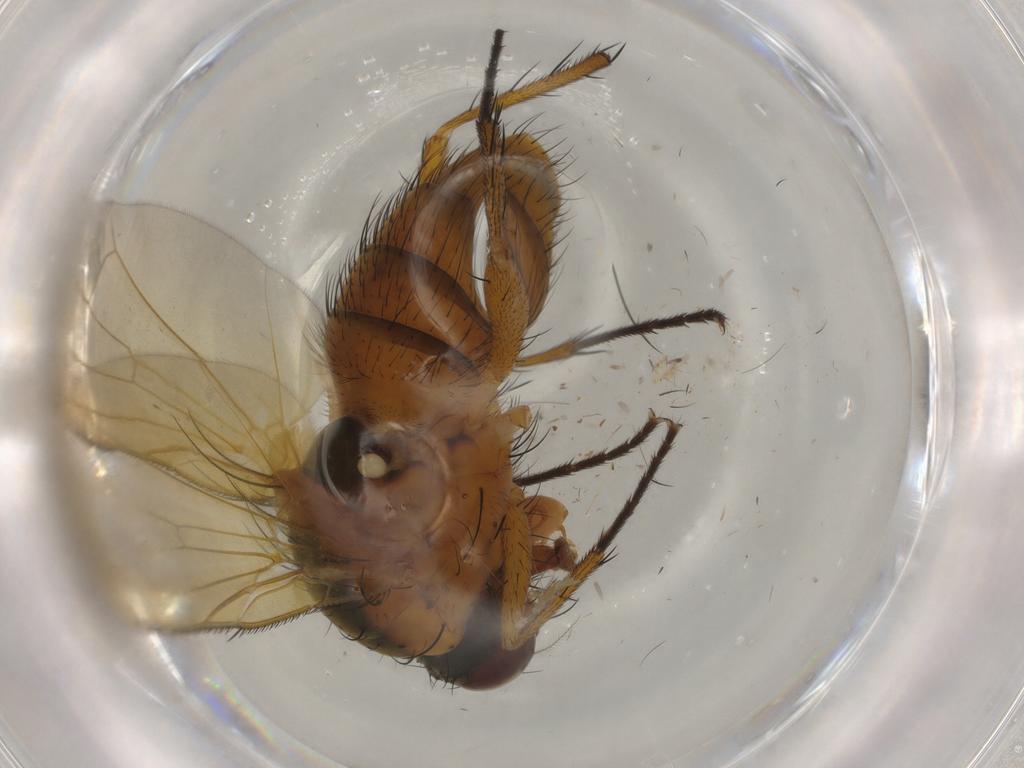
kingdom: Animalia
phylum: Arthropoda
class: Insecta
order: Diptera
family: Anthomyiidae
